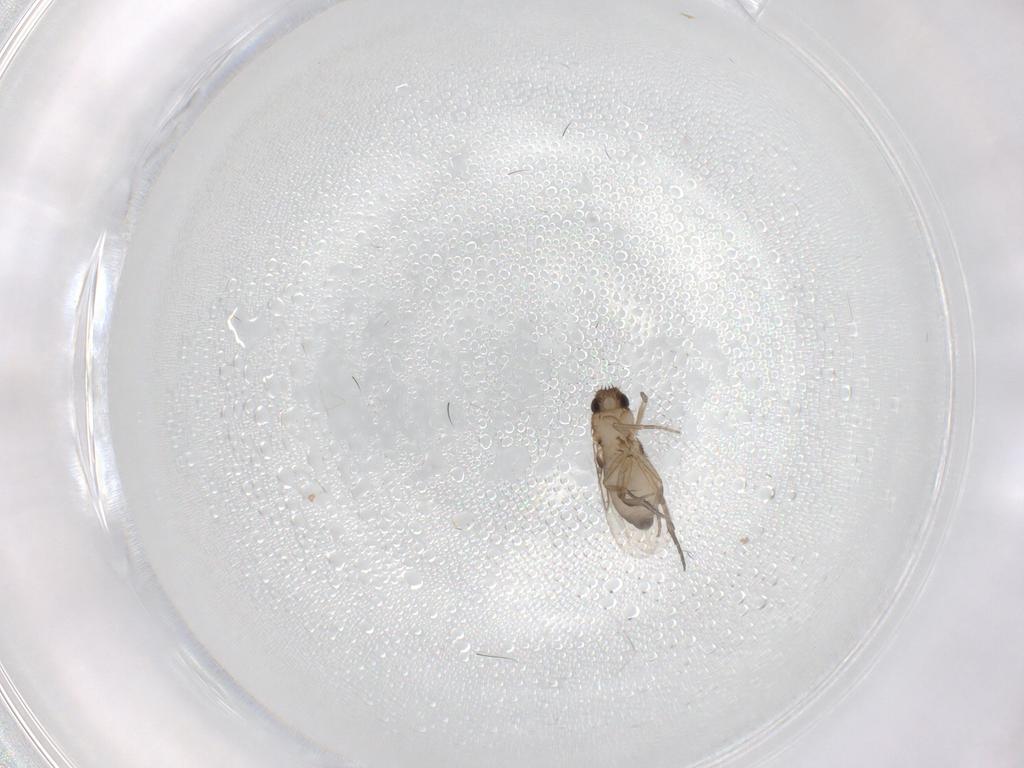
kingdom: Animalia
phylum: Arthropoda
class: Insecta
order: Diptera
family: Phoridae
